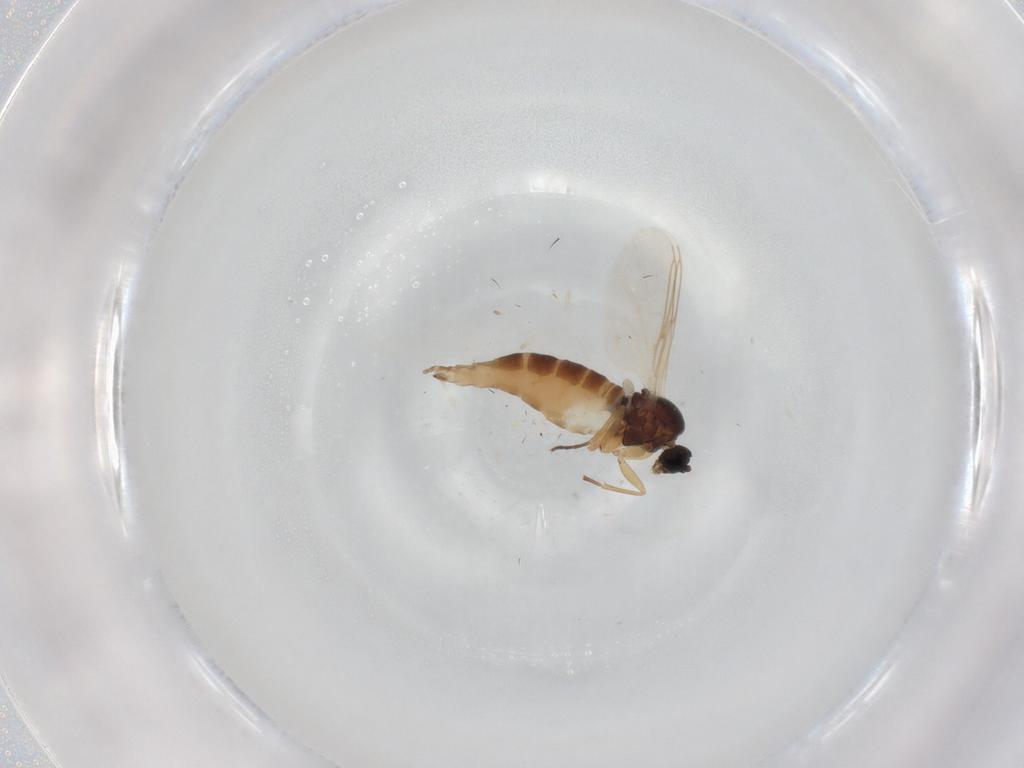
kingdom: Animalia
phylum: Arthropoda
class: Insecta
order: Diptera
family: Sciaridae
